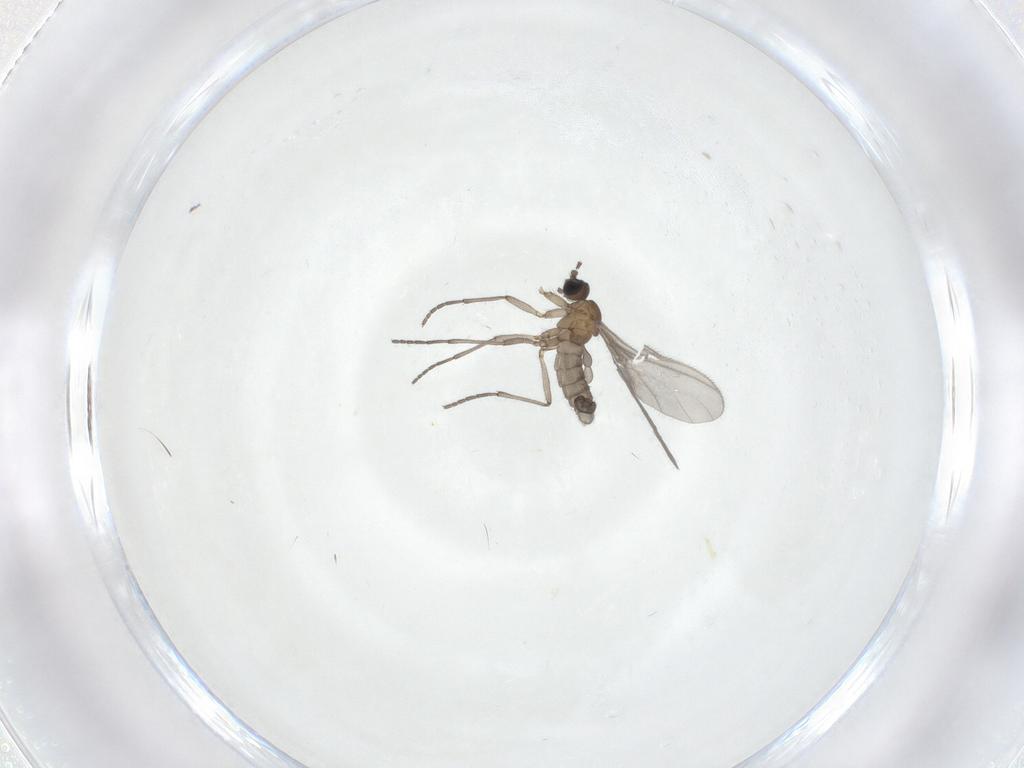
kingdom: Animalia
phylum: Arthropoda
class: Insecta
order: Diptera
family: Sciaridae
